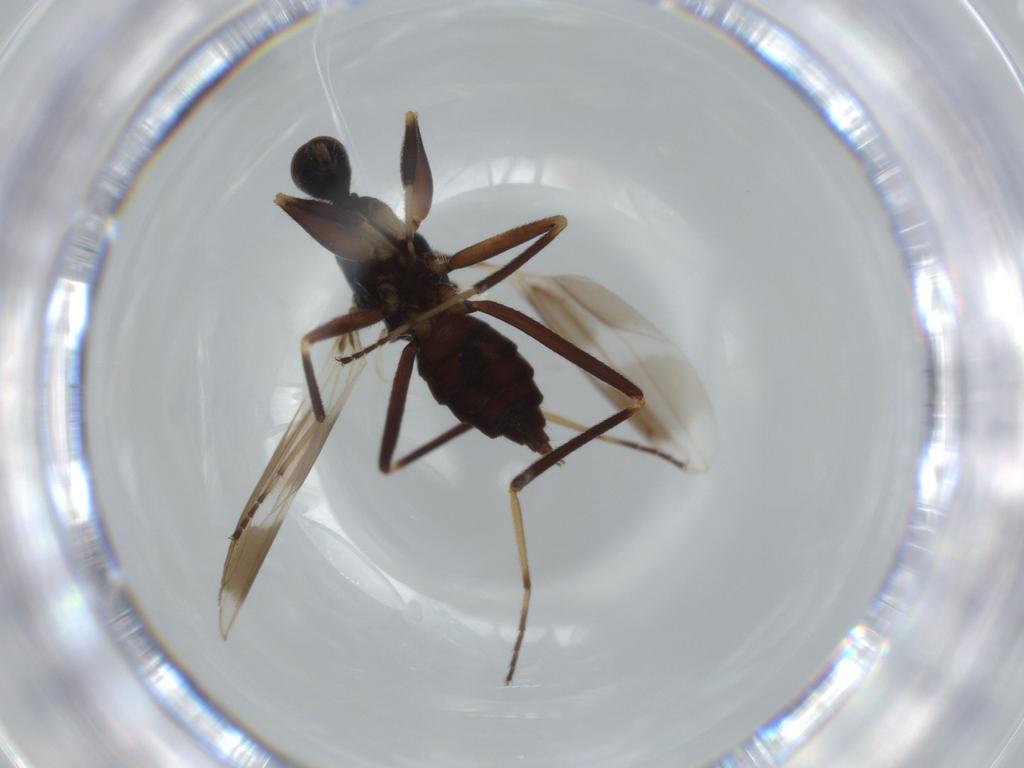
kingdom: Animalia
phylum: Arthropoda
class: Insecta
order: Diptera
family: Hybotidae
